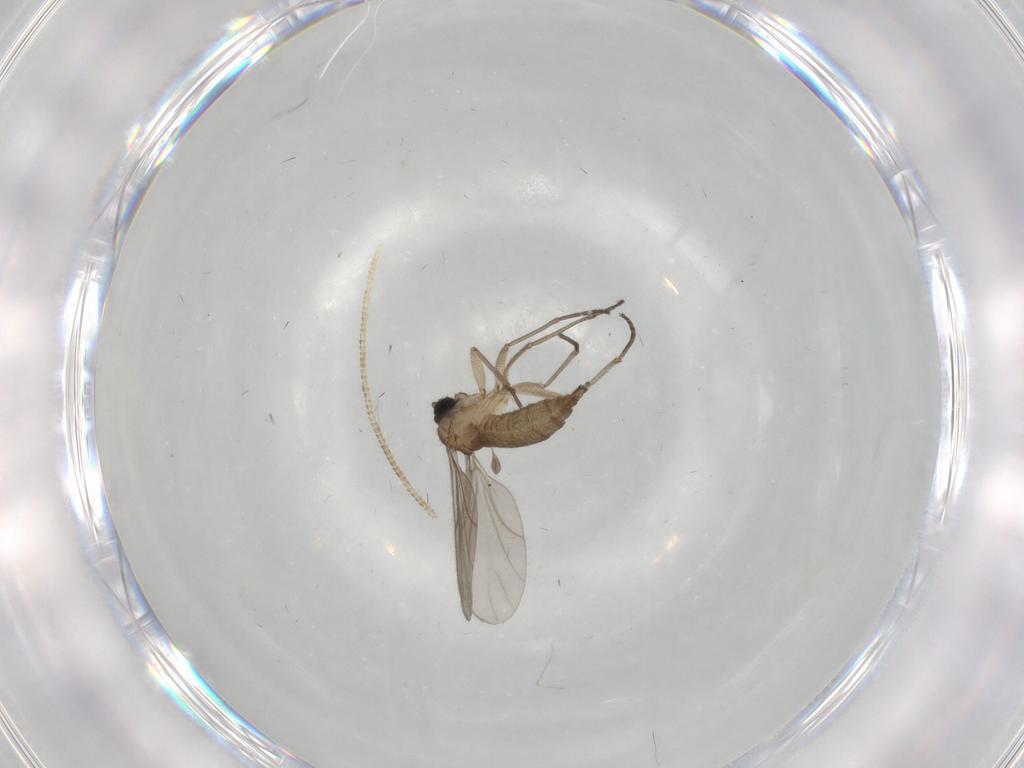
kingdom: Animalia
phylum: Arthropoda
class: Insecta
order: Diptera
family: Sciaridae
